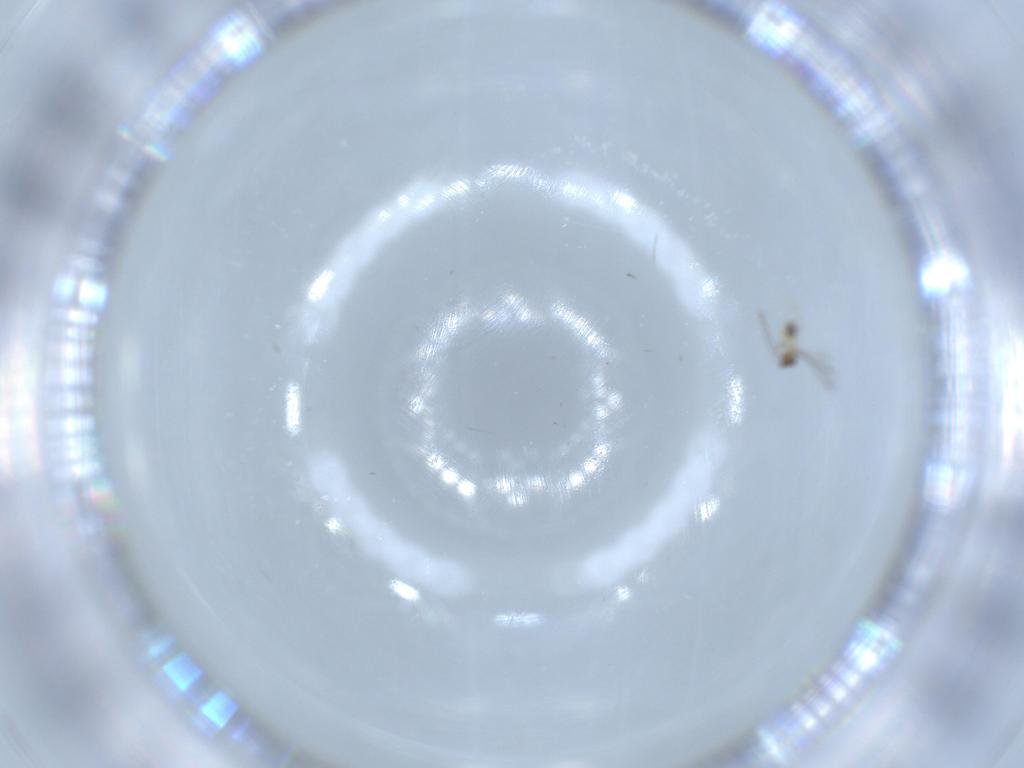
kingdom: Animalia
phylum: Arthropoda
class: Insecta
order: Hymenoptera
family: Mymaridae
